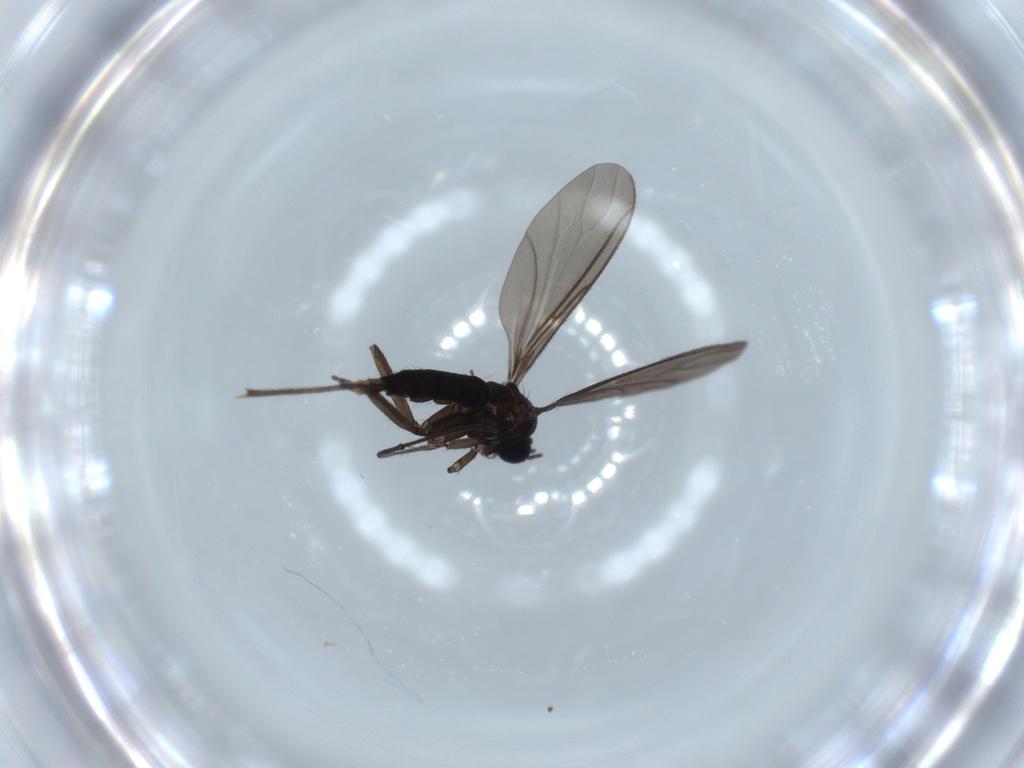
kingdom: Animalia
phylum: Arthropoda
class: Insecta
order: Diptera
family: Sciaridae
